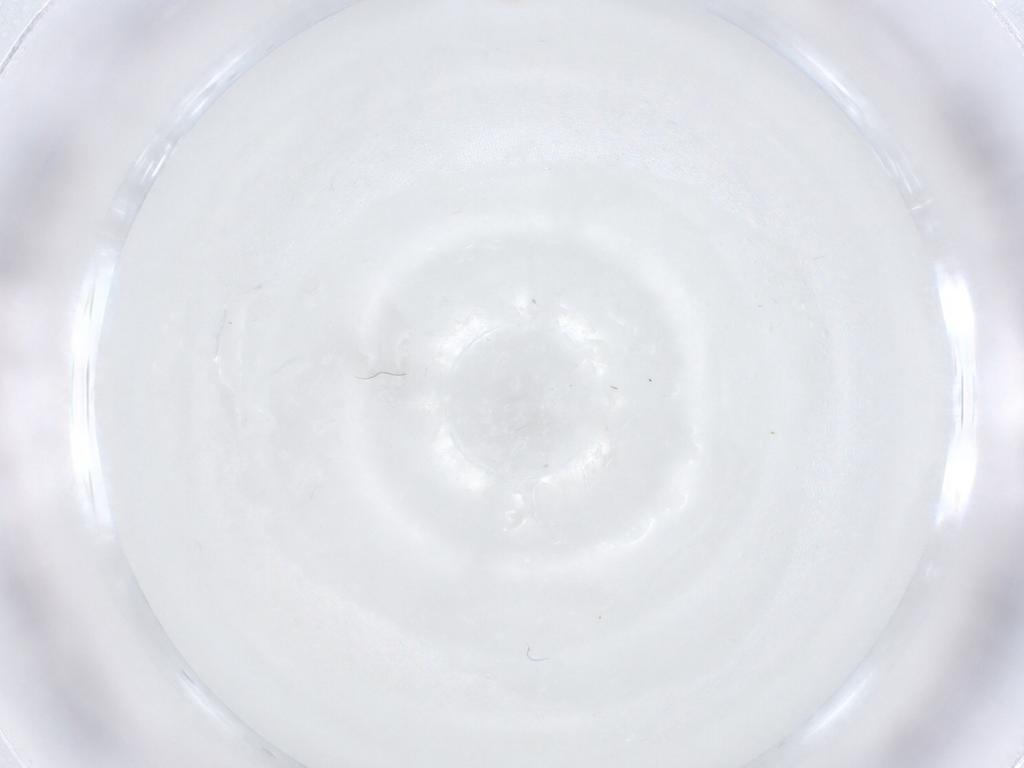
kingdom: Animalia
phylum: Arthropoda
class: Insecta
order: Diptera
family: Cecidomyiidae
